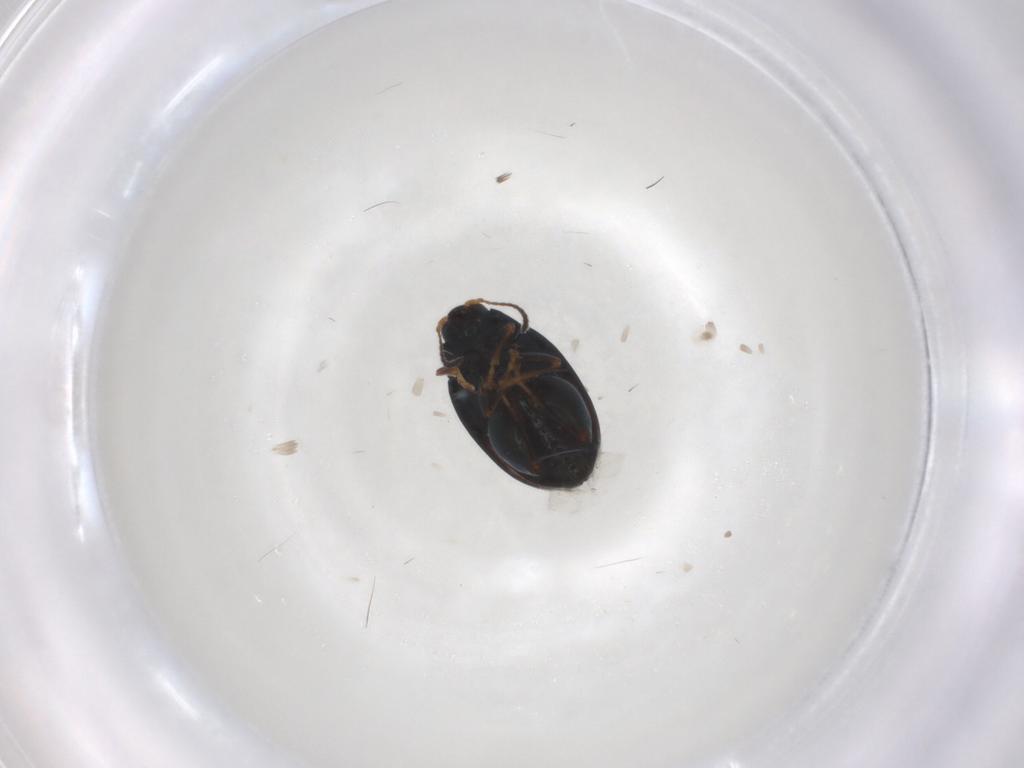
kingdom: Animalia
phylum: Arthropoda
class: Insecta
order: Coleoptera
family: Chrysomelidae
